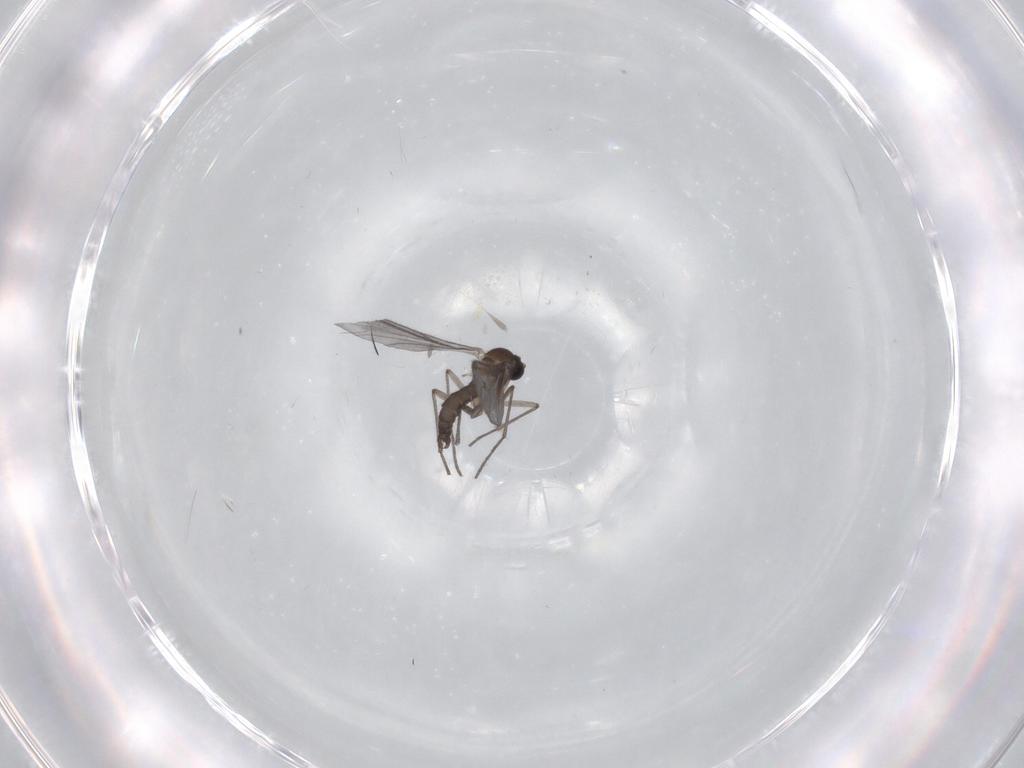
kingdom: Animalia
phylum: Arthropoda
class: Insecta
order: Diptera
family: Sciaridae
